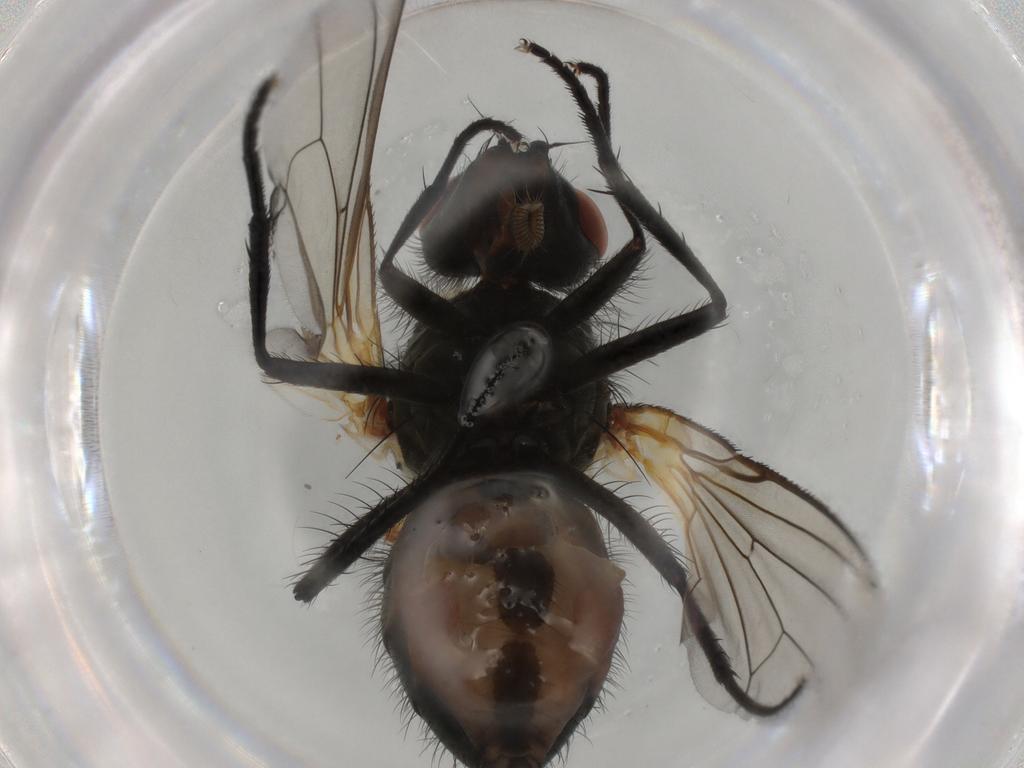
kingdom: Animalia
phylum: Arthropoda
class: Insecta
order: Diptera
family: Anthomyiidae
